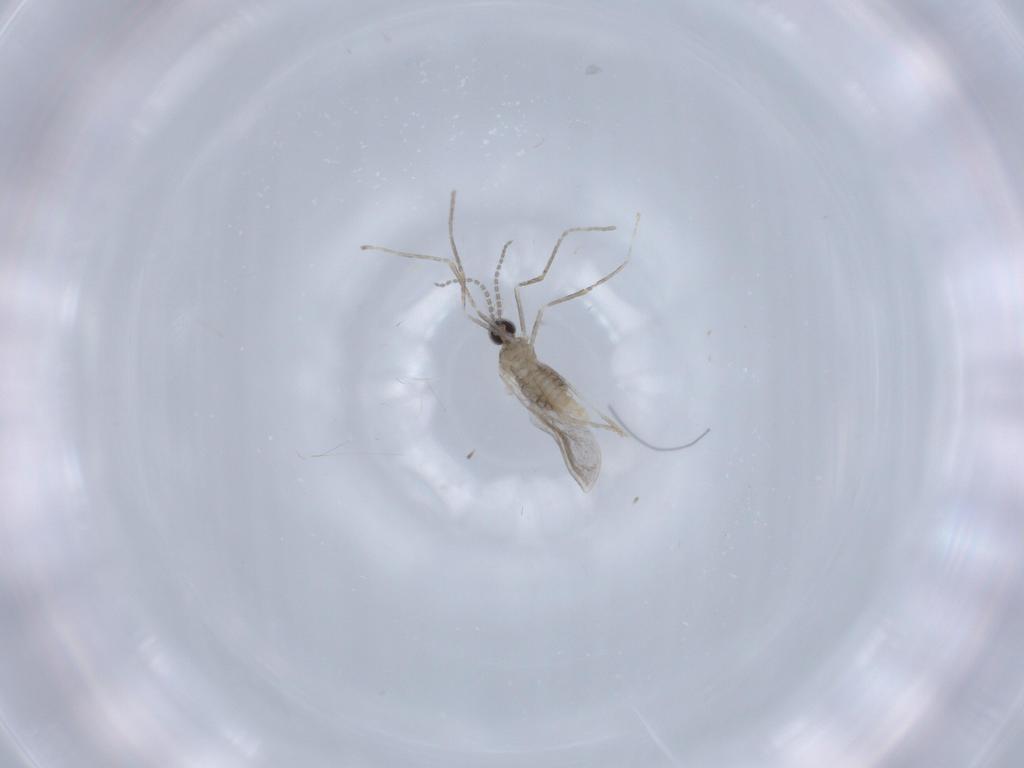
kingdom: Animalia
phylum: Arthropoda
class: Insecta
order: Diptera
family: Cecidomyiidae
